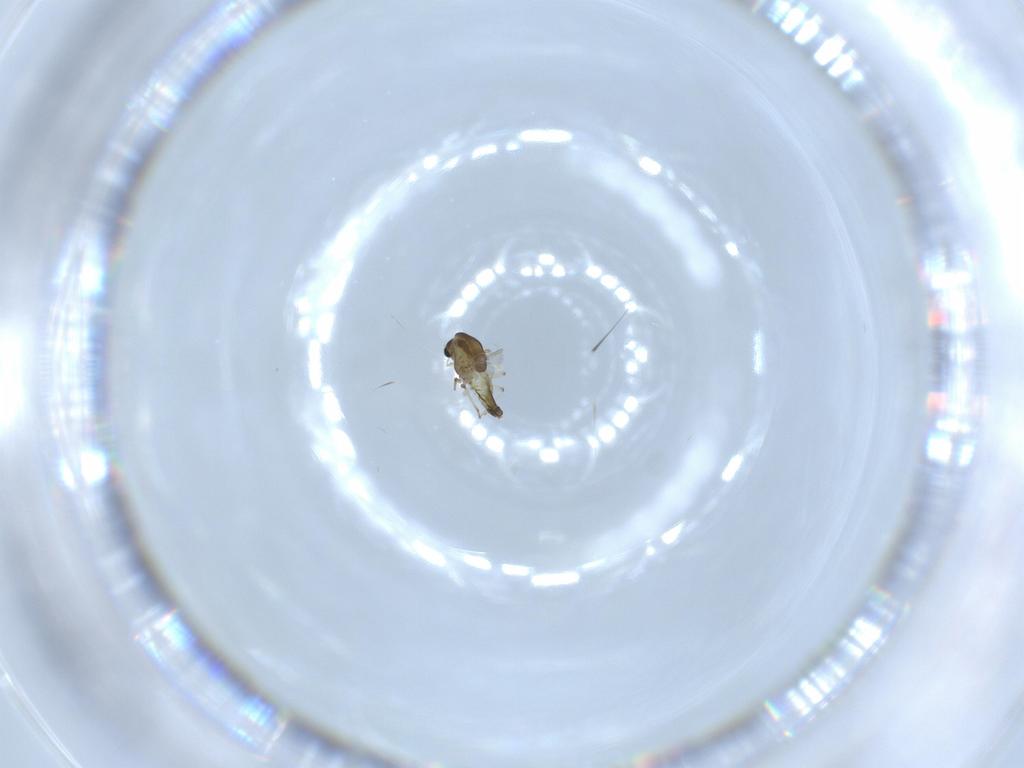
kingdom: Animalia
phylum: Arthropoda
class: Insecta
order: Diptera
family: Chironomidae
